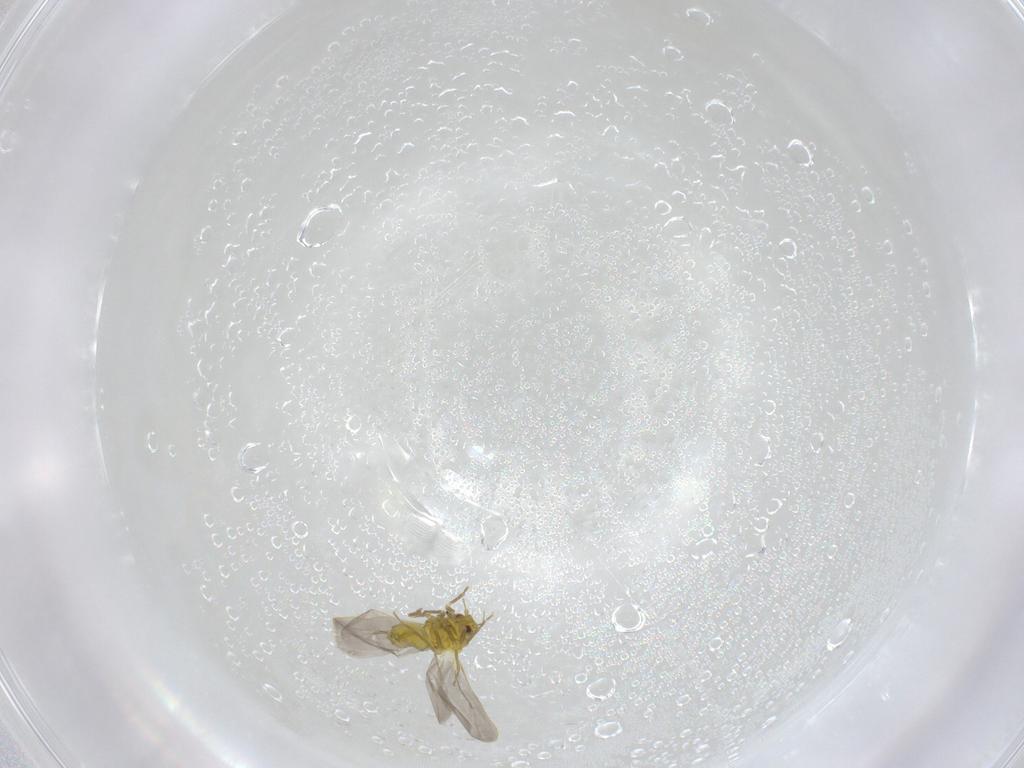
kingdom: Animalia
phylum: Arthropoda
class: Insecta
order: Hemiptera
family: Aleyrodidae
